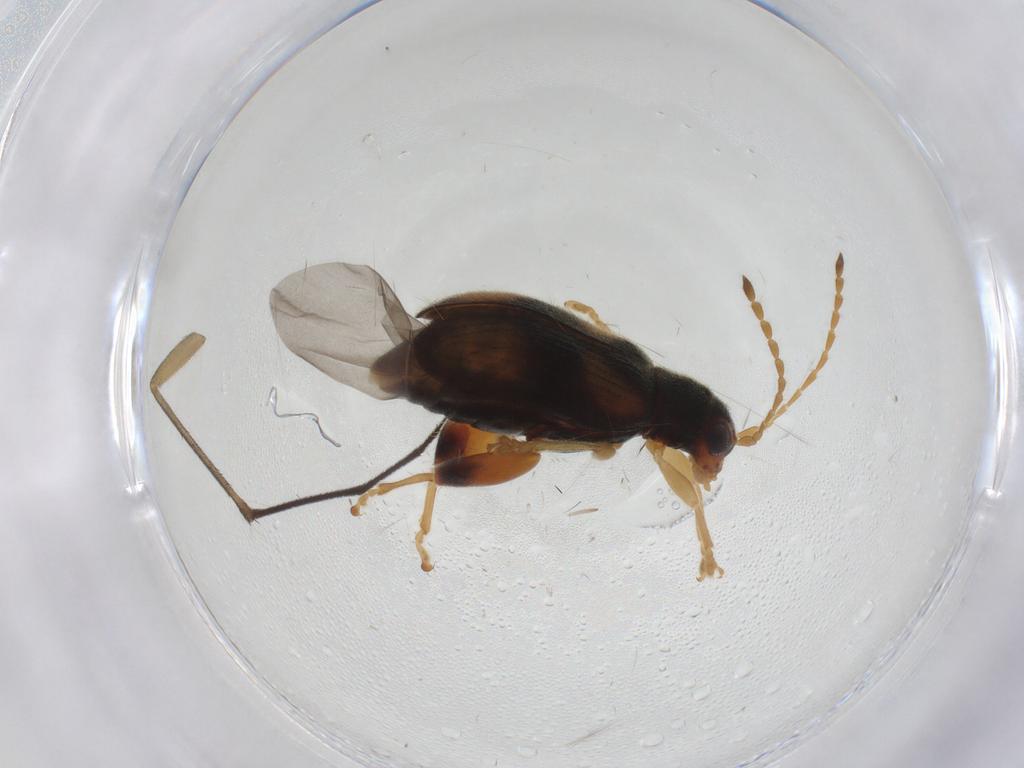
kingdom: Animalia
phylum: Arthropoda
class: Insecta
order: Coleoptera
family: Chrysomelidae
